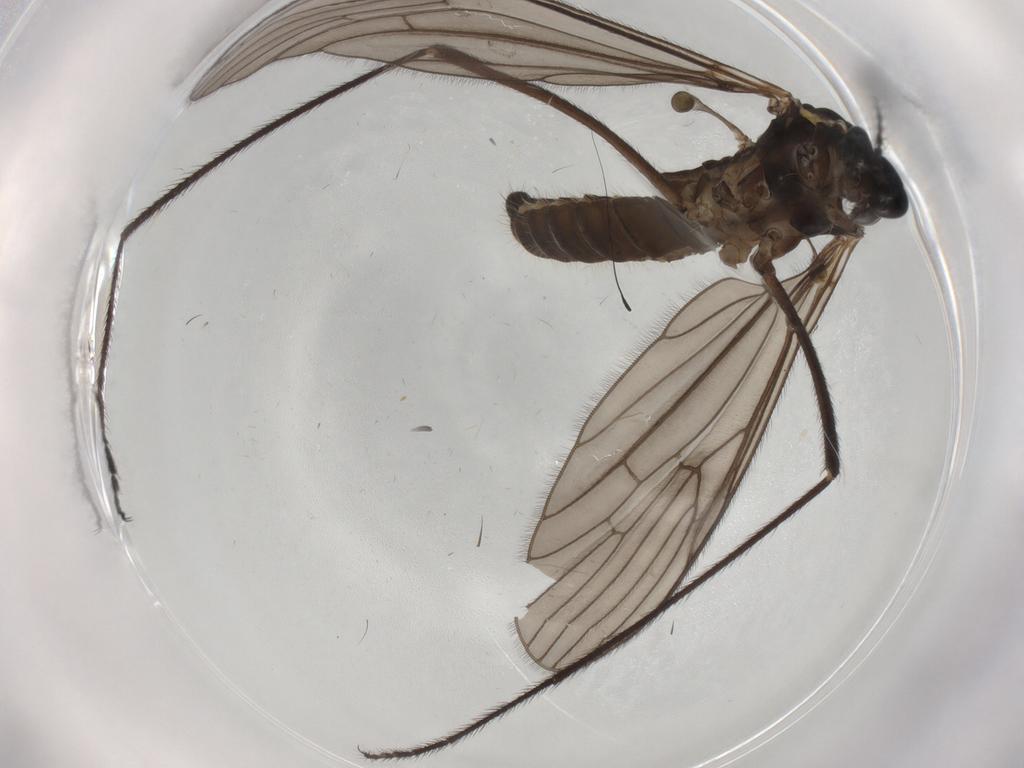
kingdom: Animalia
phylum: Arthropoda
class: Insecta
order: Diptera
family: Limoniidae
